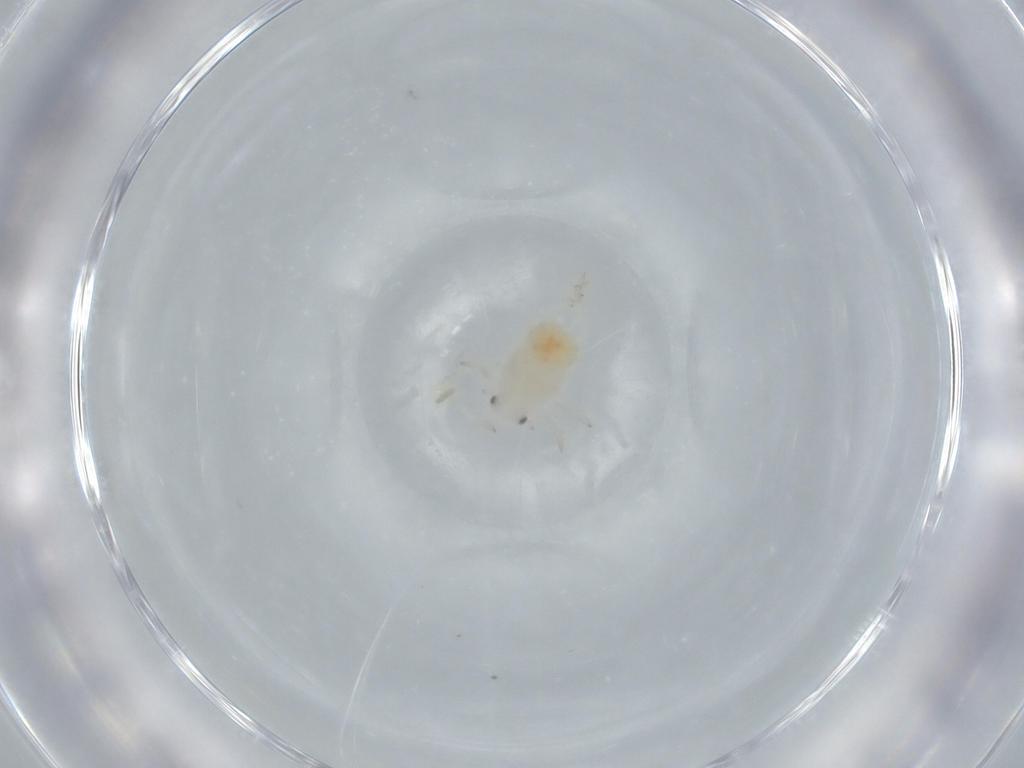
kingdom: Animalia
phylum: Arthropoda
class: Insecta
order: Hemiptera
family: Flatidae
